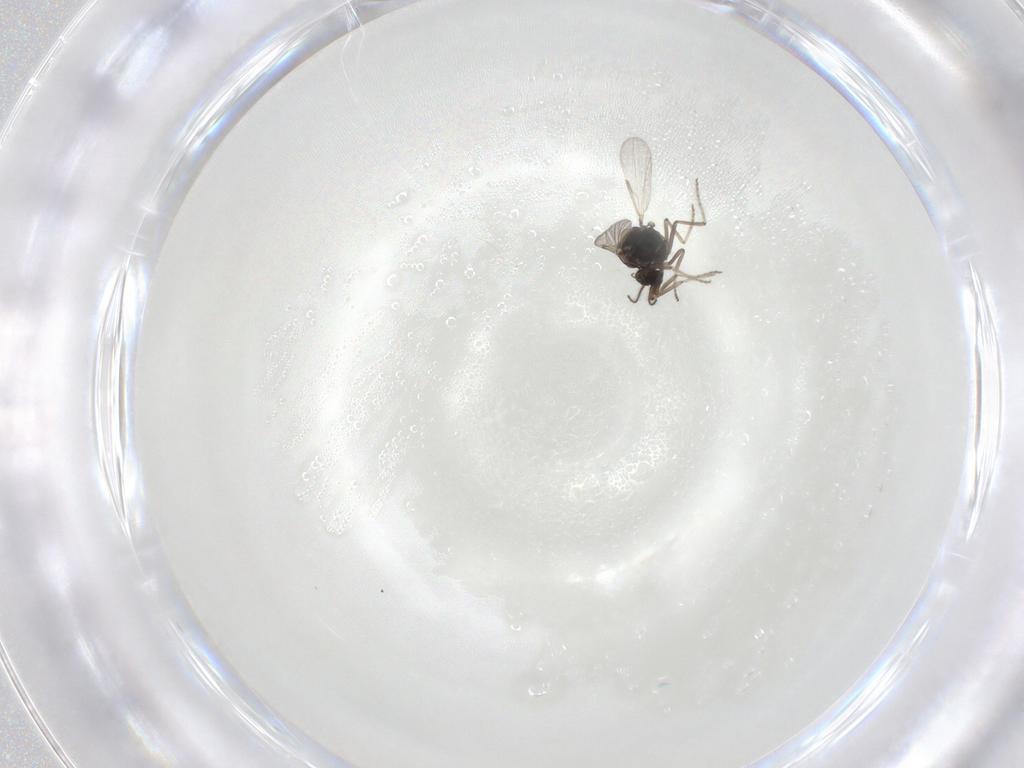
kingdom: Animalia
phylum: Arthropoda
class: Insecta
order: Diptera
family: Ceratopogonidae
